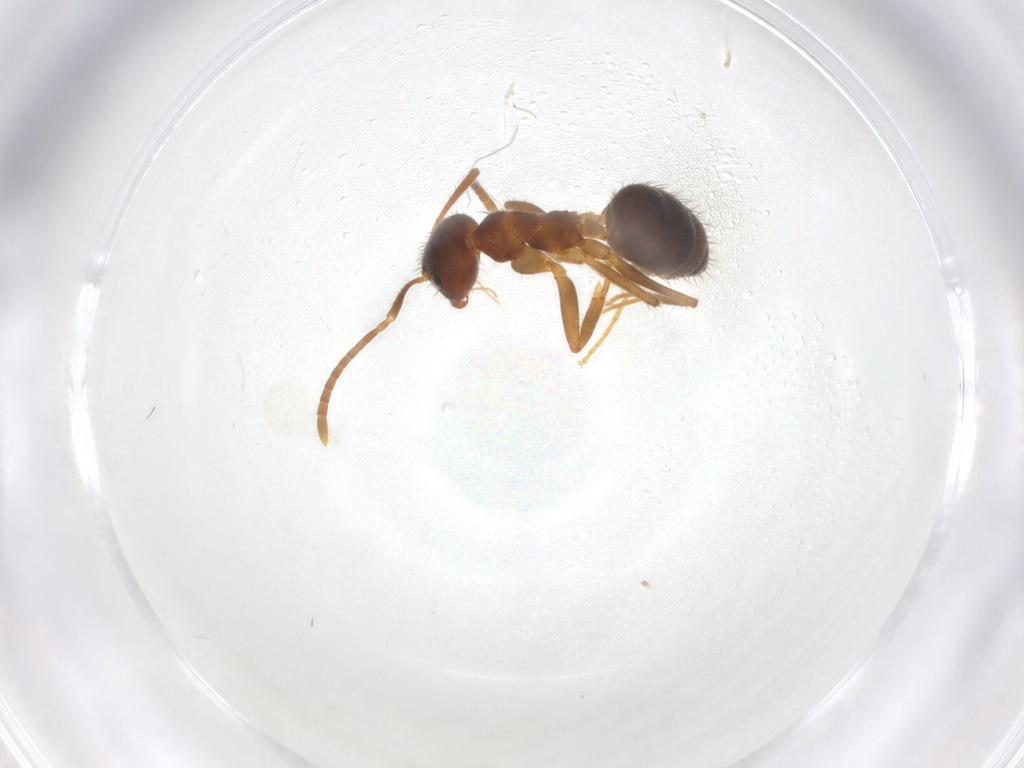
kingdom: Animalia
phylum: Arthropoda
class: Insecta
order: Hymenoptera
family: Formicidae
